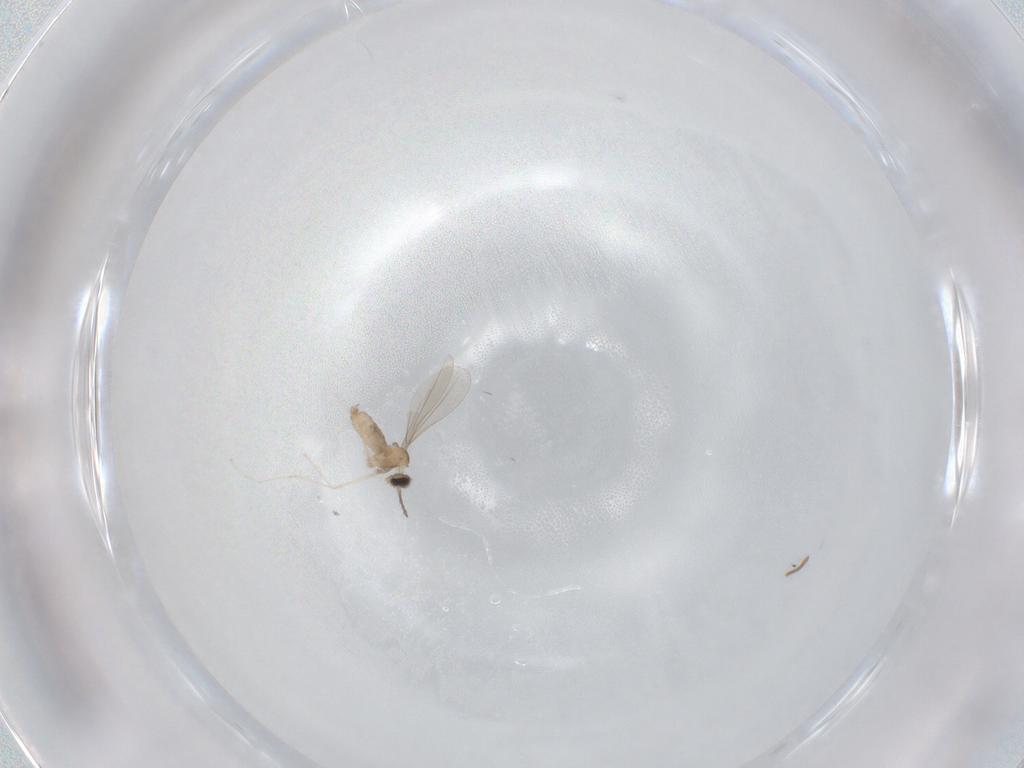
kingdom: Animalia
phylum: Arthropoda
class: Insecta
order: Diptera
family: Cecidomyiidae
